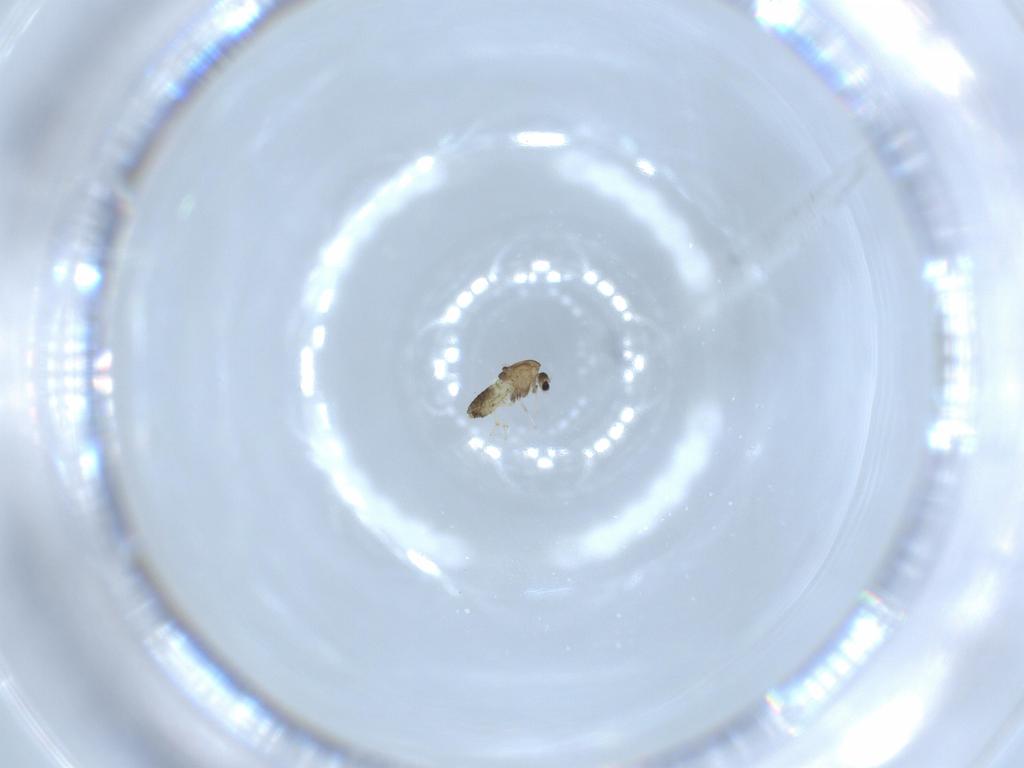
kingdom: Animalia
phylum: Arthropoda
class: Insecta
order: Diptera
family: Chironomidae
